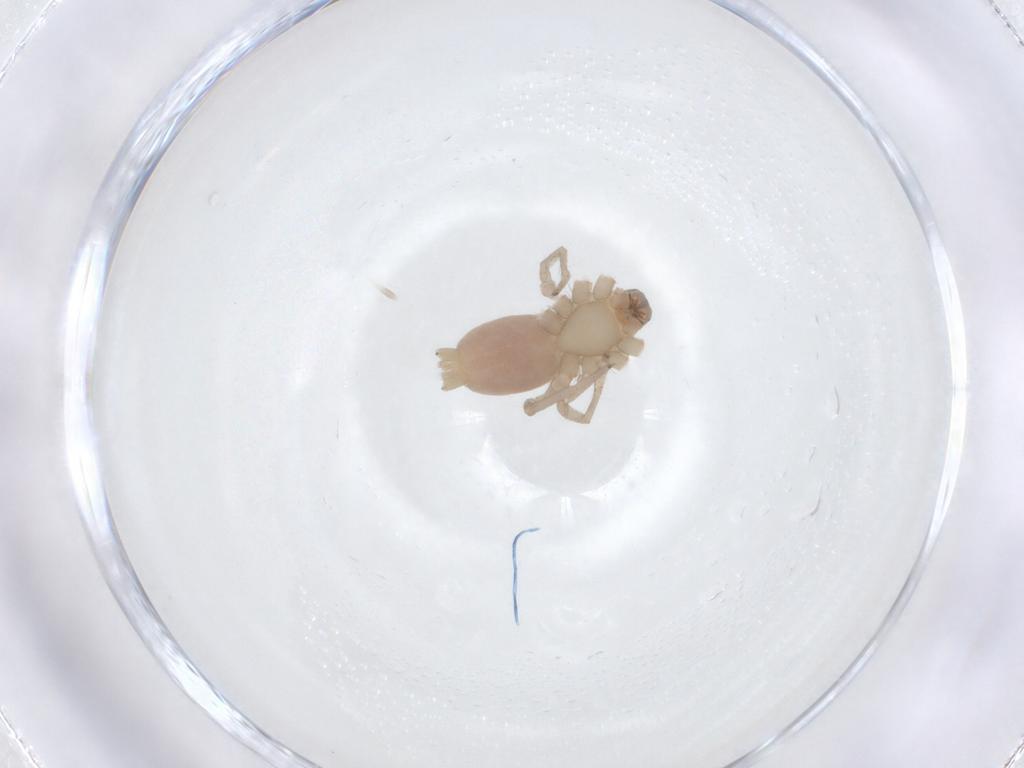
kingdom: Animalia
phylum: Arthropoda
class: Arachnida
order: Araneae
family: Gnaphosidae
